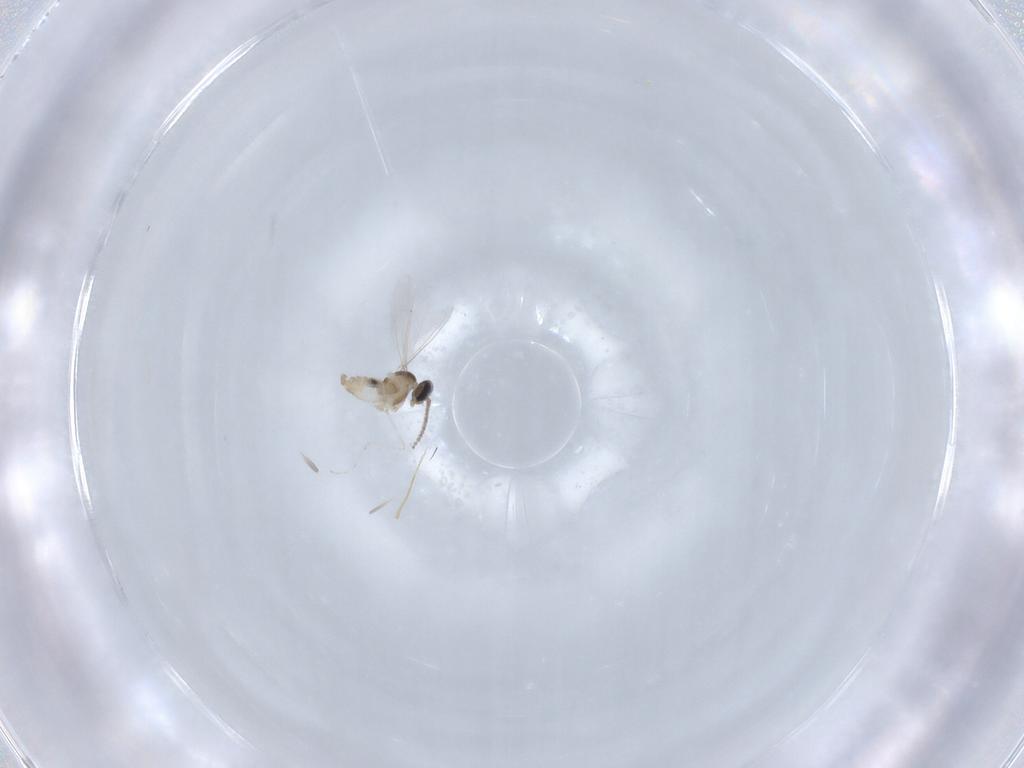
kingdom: Animalia
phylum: Arthropoda
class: Insecta
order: Diptera
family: Cecidomyiidae
